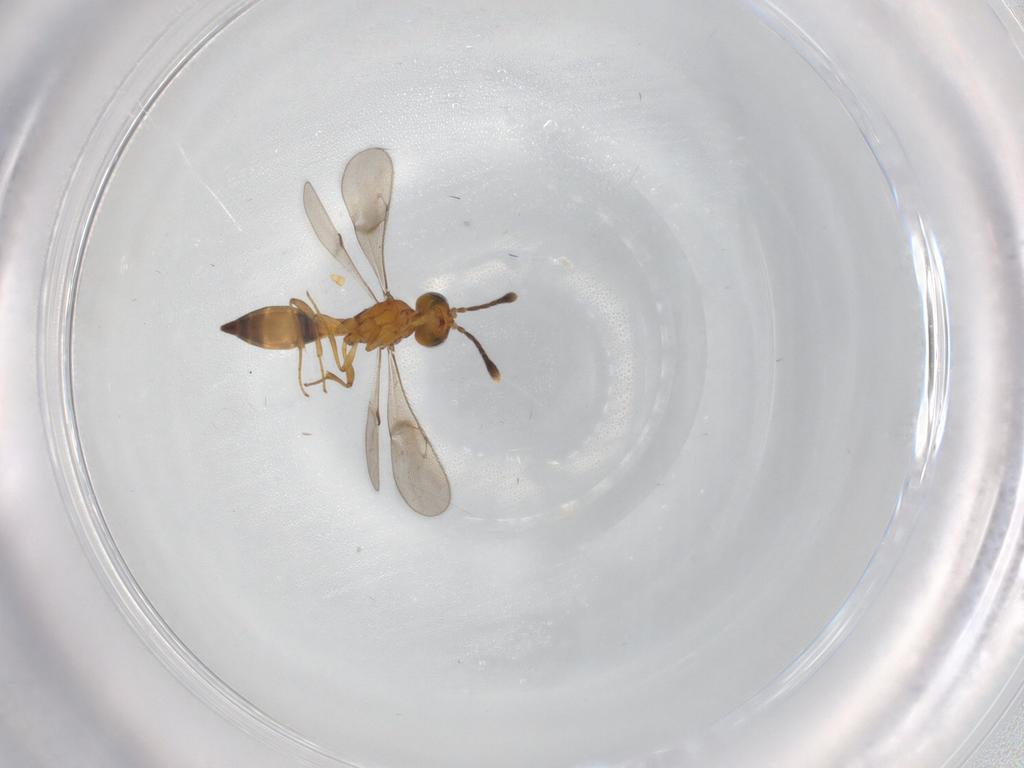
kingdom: Animalia
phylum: Arthropoda
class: Insecta
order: Hymenoptera
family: Scelionidae
